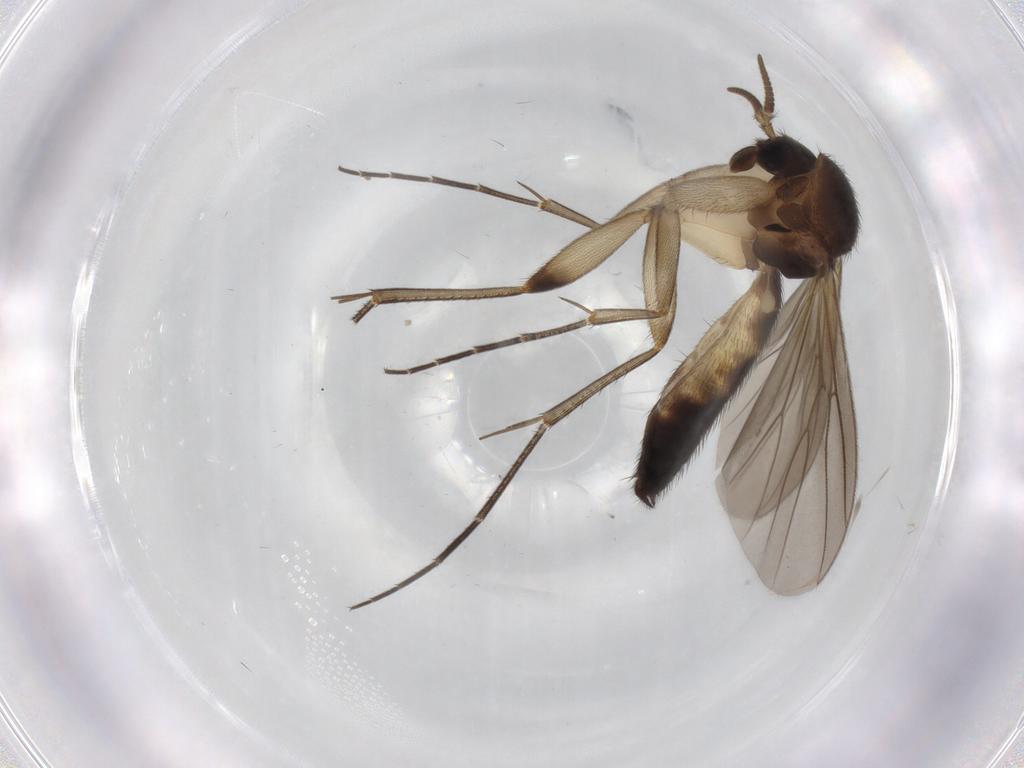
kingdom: Animalia
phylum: Arthropoda
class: Insecta
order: Diptera
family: Mycetophilidae
